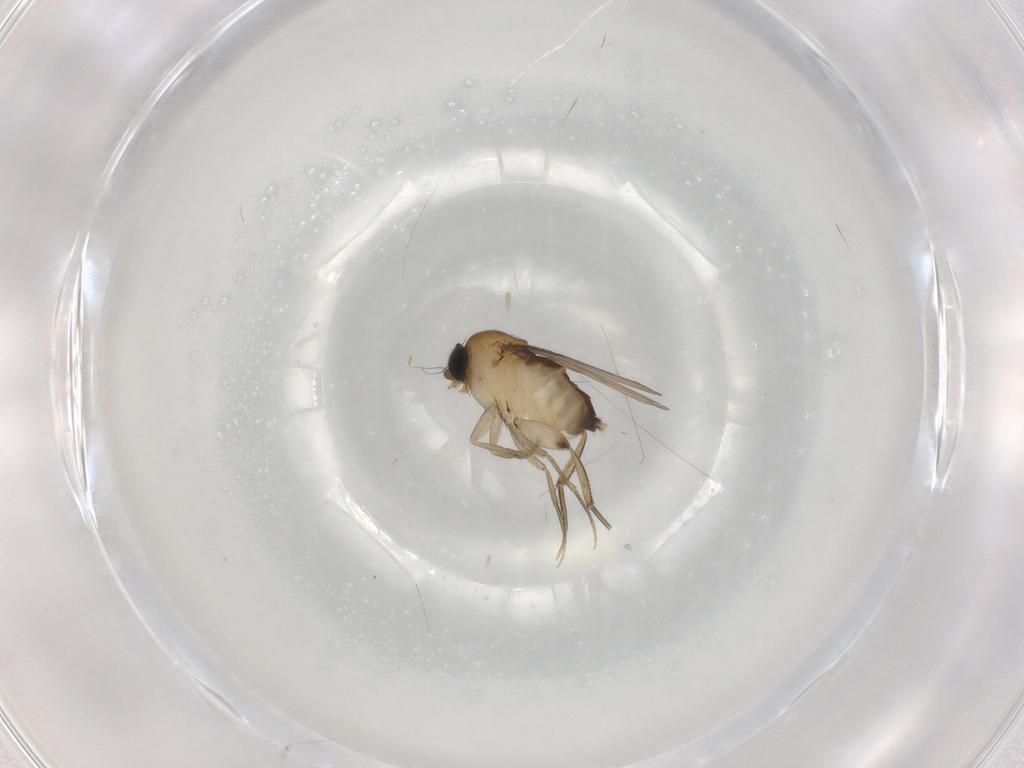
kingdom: Animalia
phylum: Arthropoda
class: Insecta
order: Diptera
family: Phoridae
